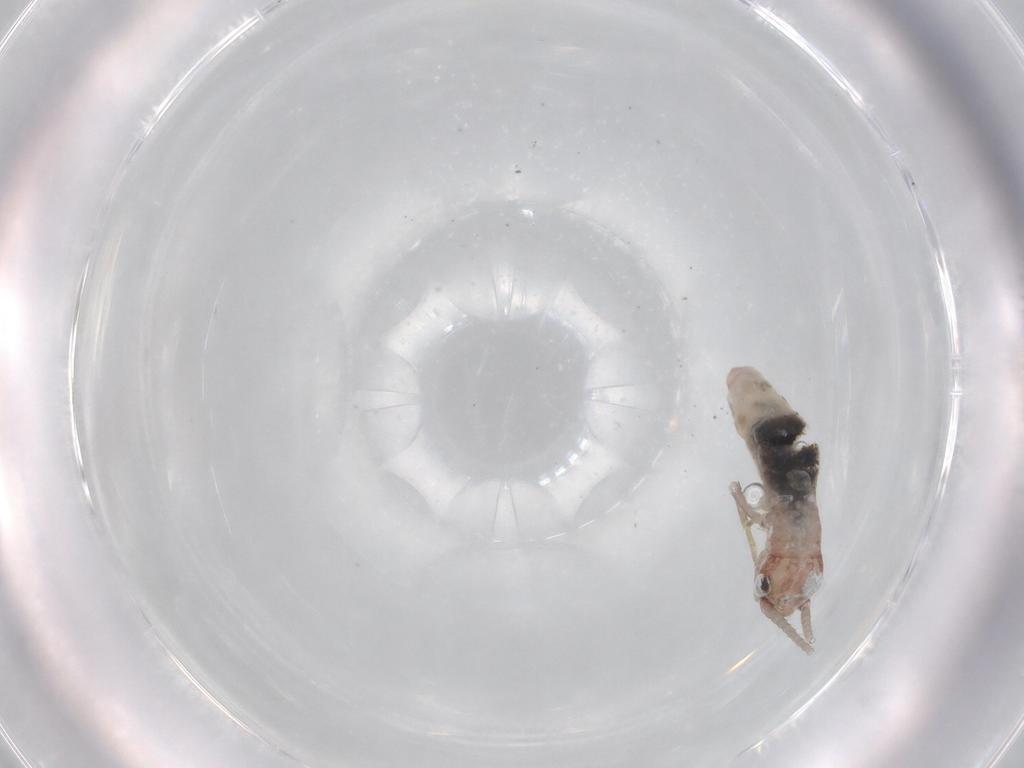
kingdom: Animalia
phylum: Arthropoda
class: Insecta
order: Orthoptera
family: Mogoplistidae
